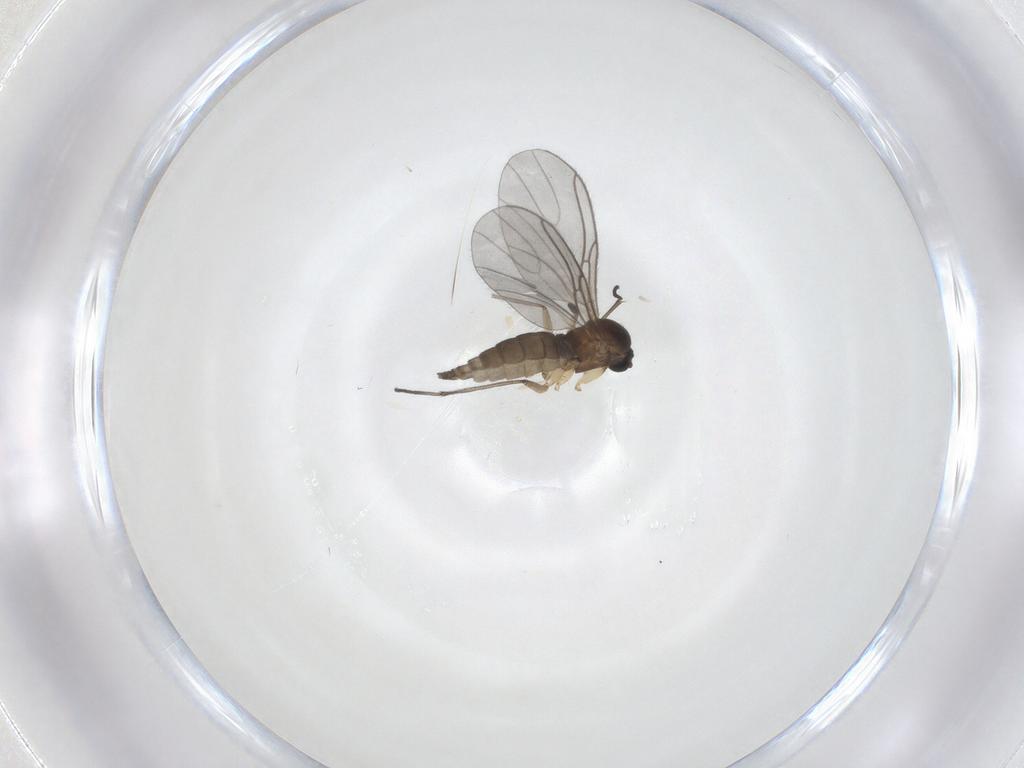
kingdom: Animalia
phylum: Arthropoda
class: Insecta
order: Diptera
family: Sciaridae
